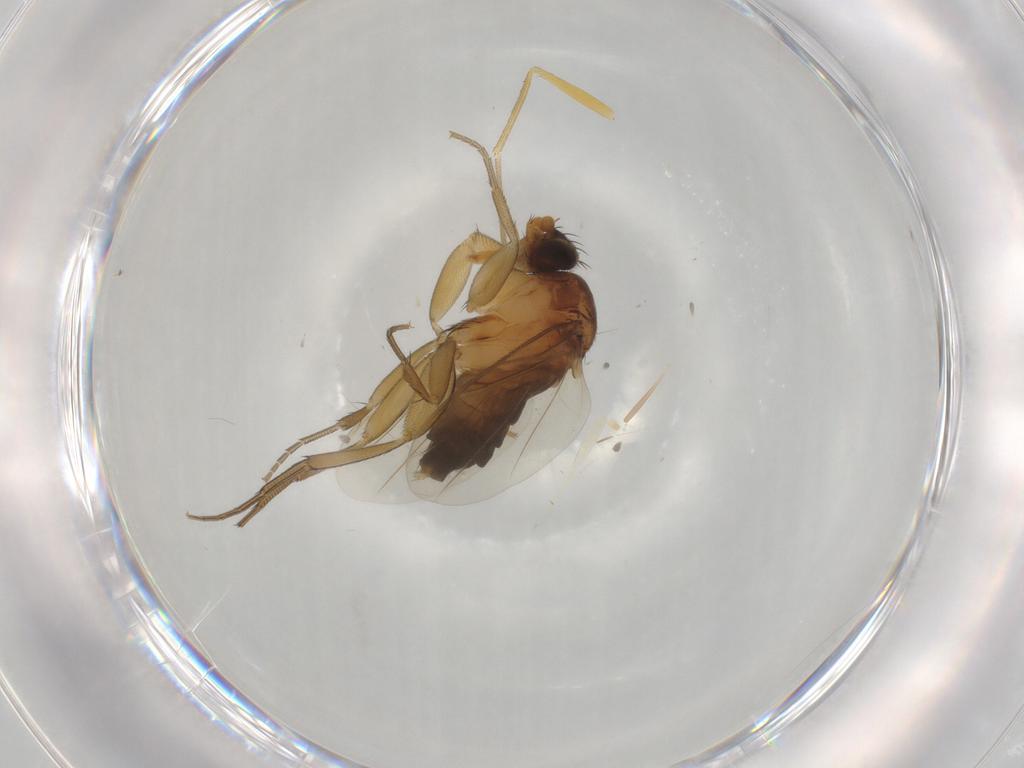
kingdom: Animalia
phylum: Arthropoda
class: Insecta
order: Diptera
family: Dolichopodidae
